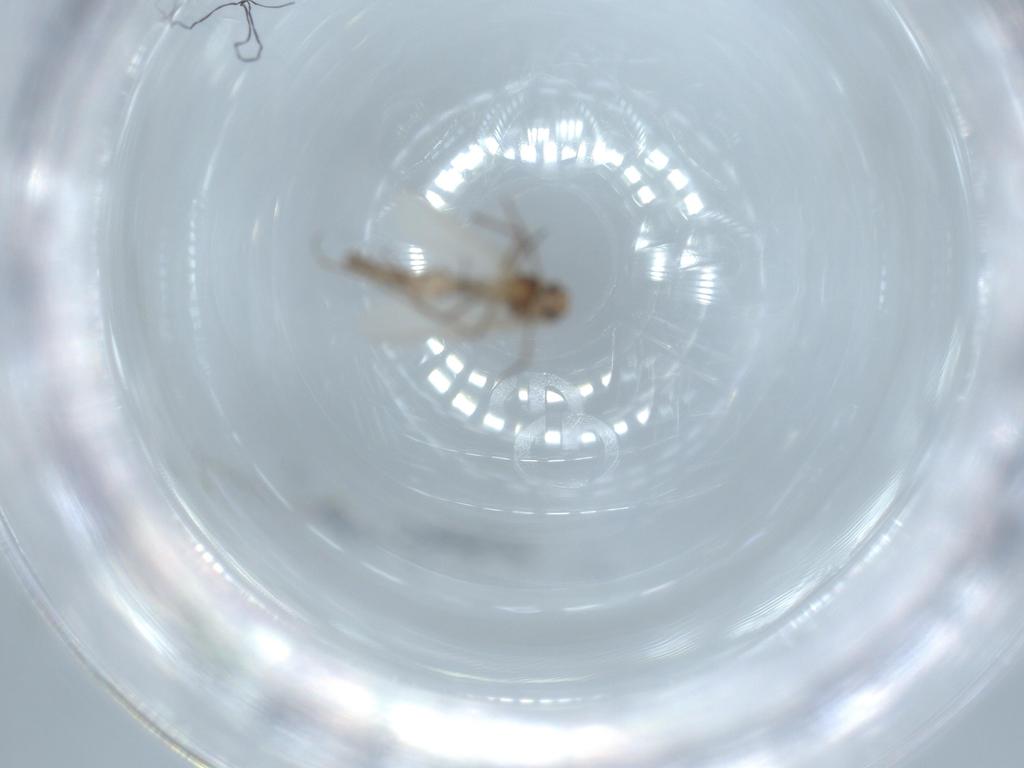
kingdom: Animalia
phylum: Arthropoda
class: Insecta
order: Diptera
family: Chironomidae
